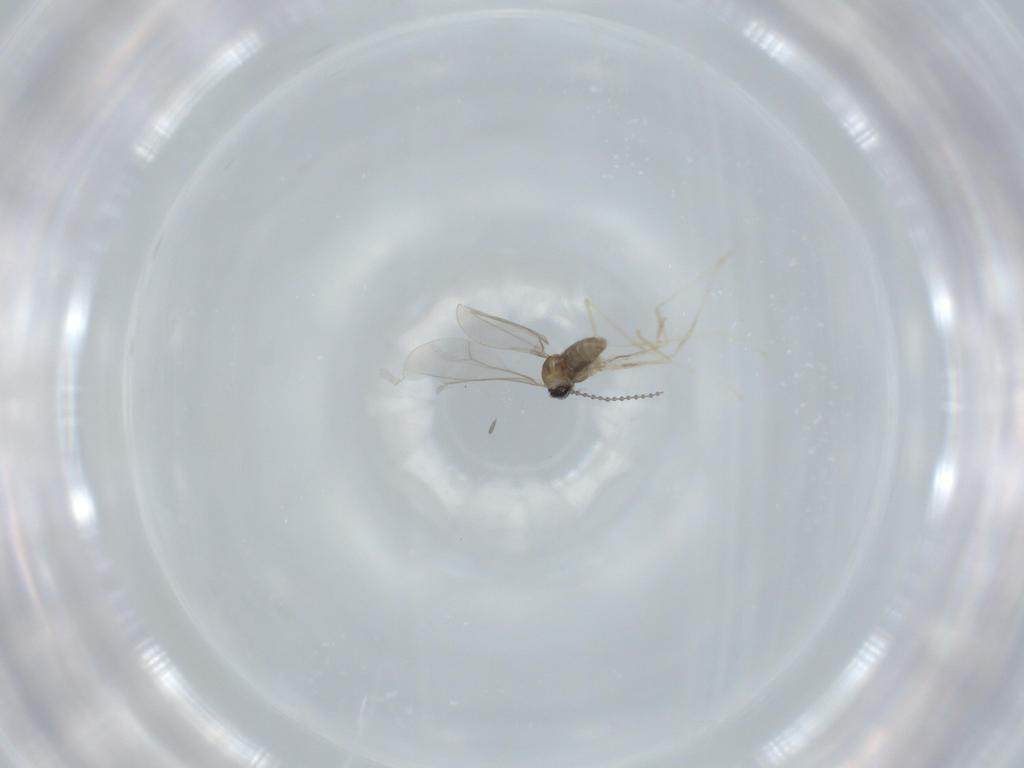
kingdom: Animalia
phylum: Arthropoda
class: Insecta
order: Diptera
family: Cecidomyiidae
